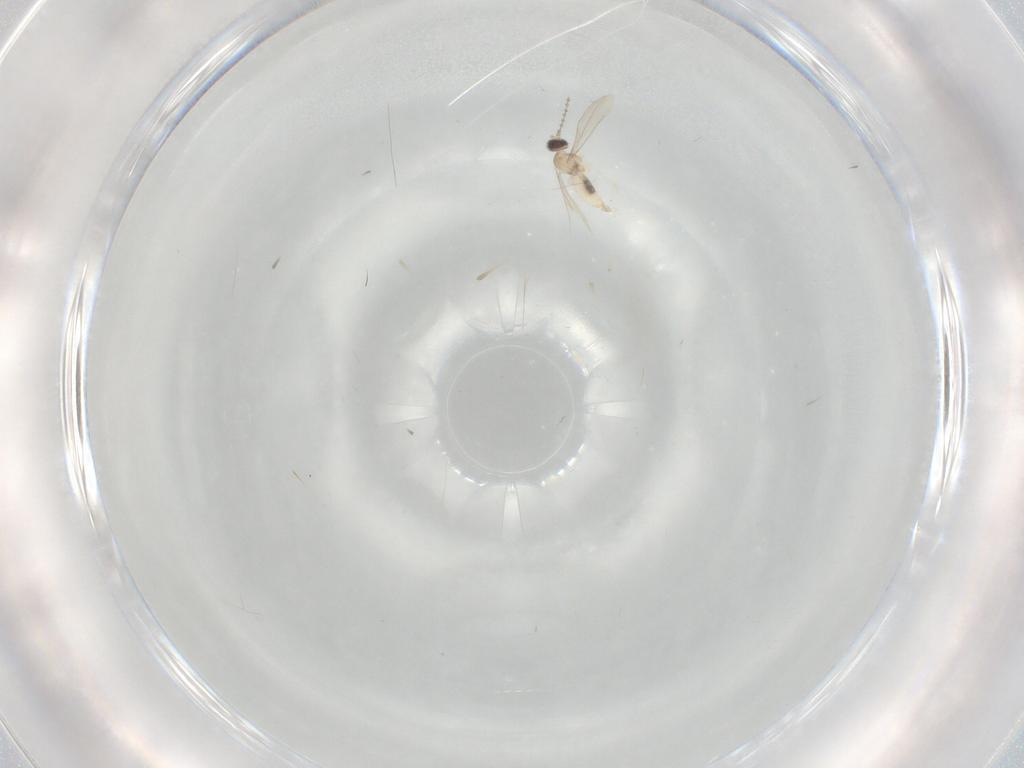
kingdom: Animalia
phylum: Arthropoda
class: Insecta
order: Diptera
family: Cecidomyiidae
